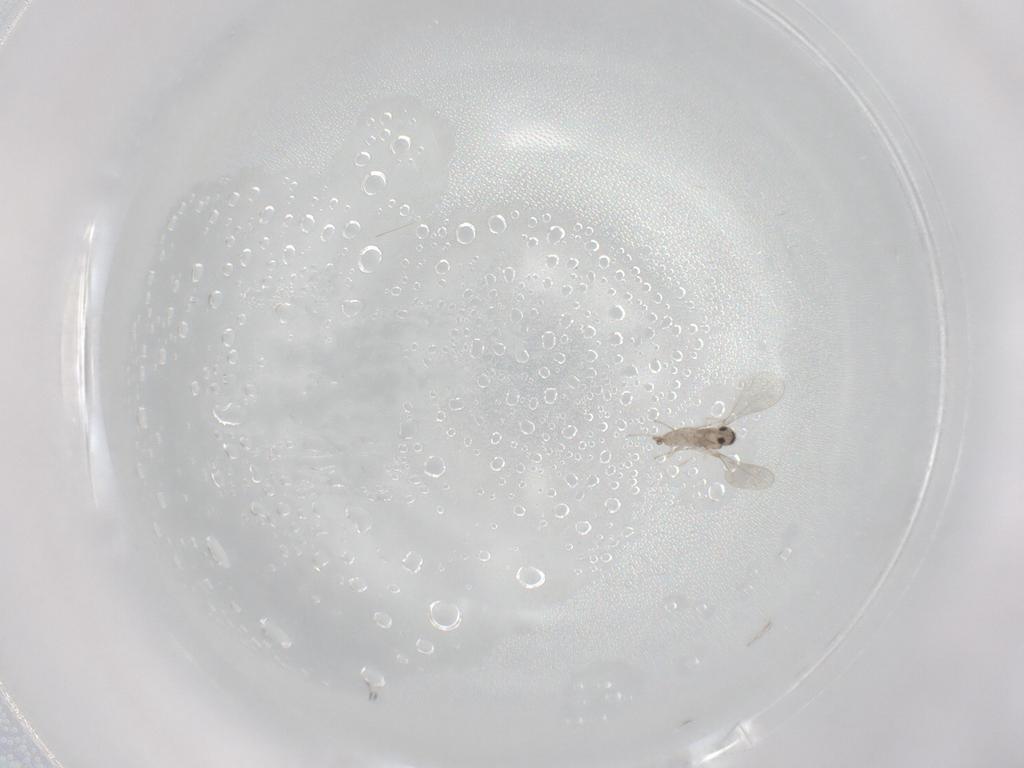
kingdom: Animalia
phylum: Arthropoda
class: Insecta
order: Diptera
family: Cecidomyiidae
